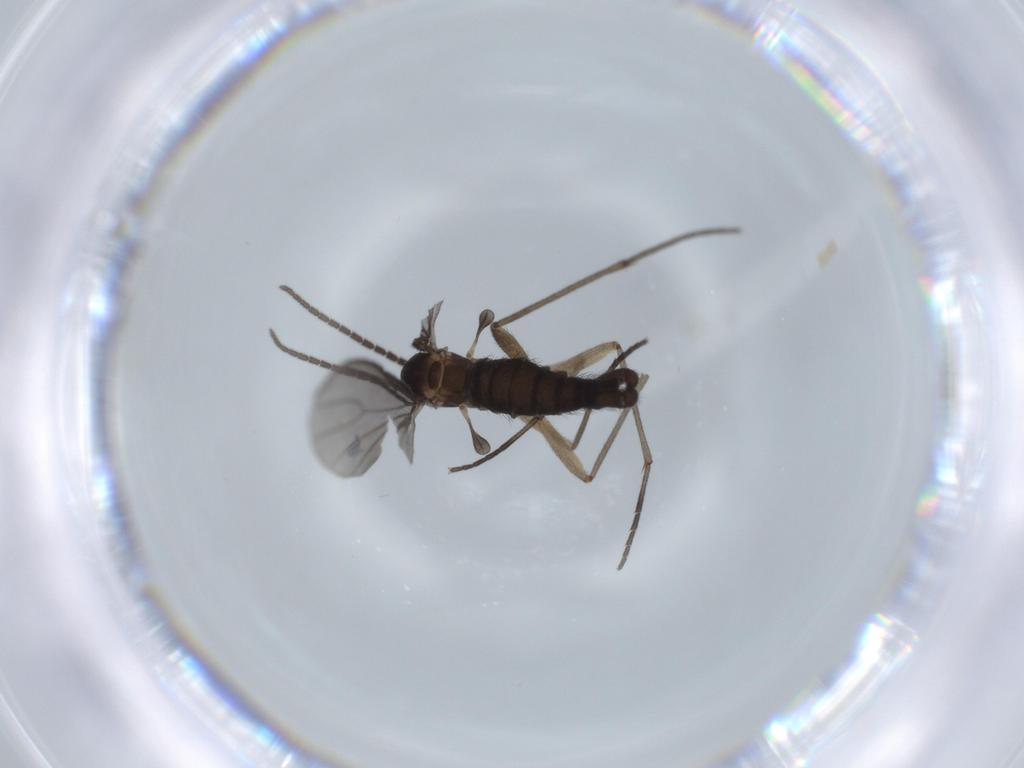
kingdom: Animalia
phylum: Arthropoda
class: Insecta
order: Diptera
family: Sciaridae
